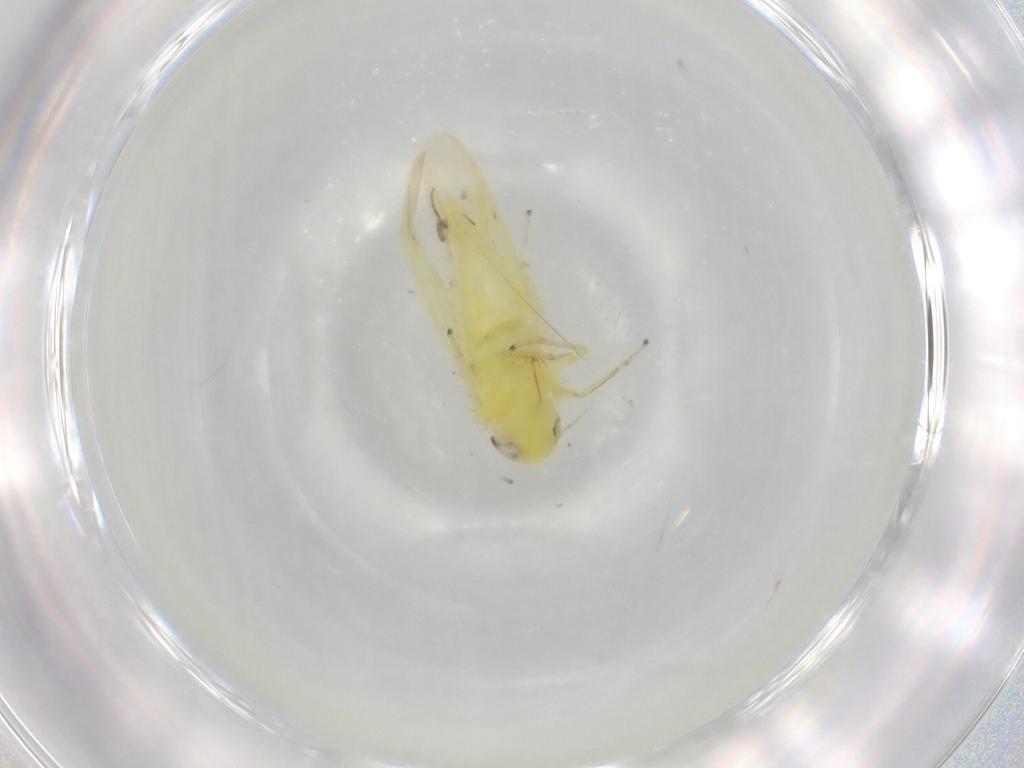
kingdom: Animalia
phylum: Arthropoda
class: Insecta
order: Hemiptera
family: Cicadellidae
